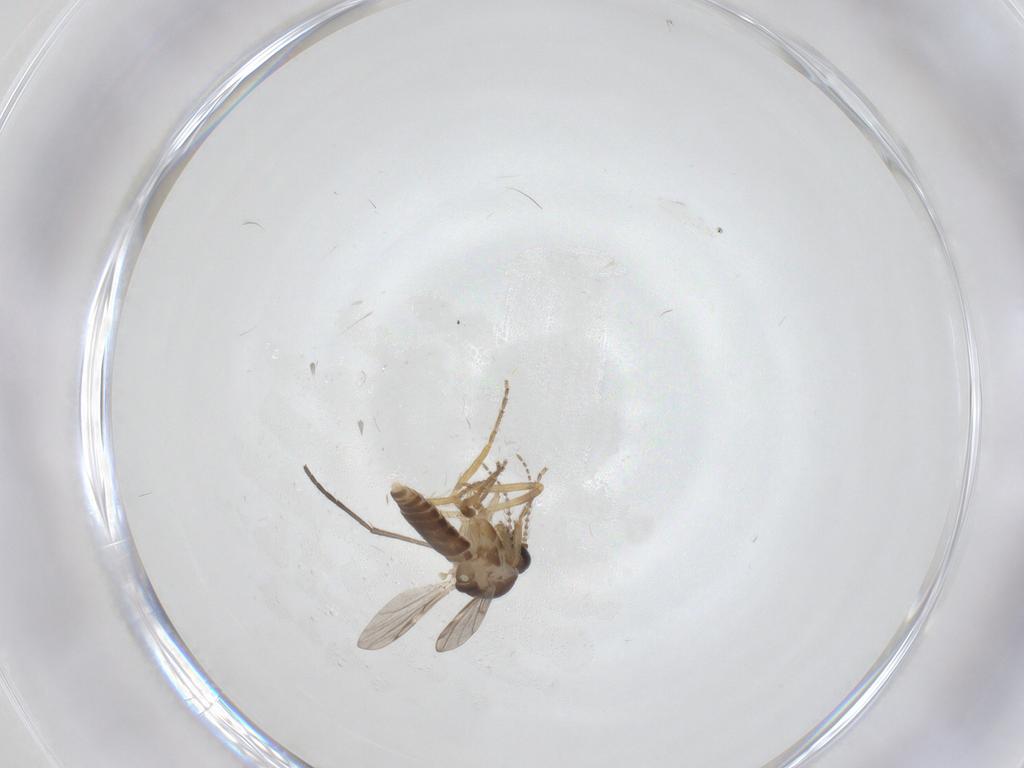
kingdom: Animalia
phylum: Arthropoda
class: Insecta
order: Diptera
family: Ceratopogonidae
